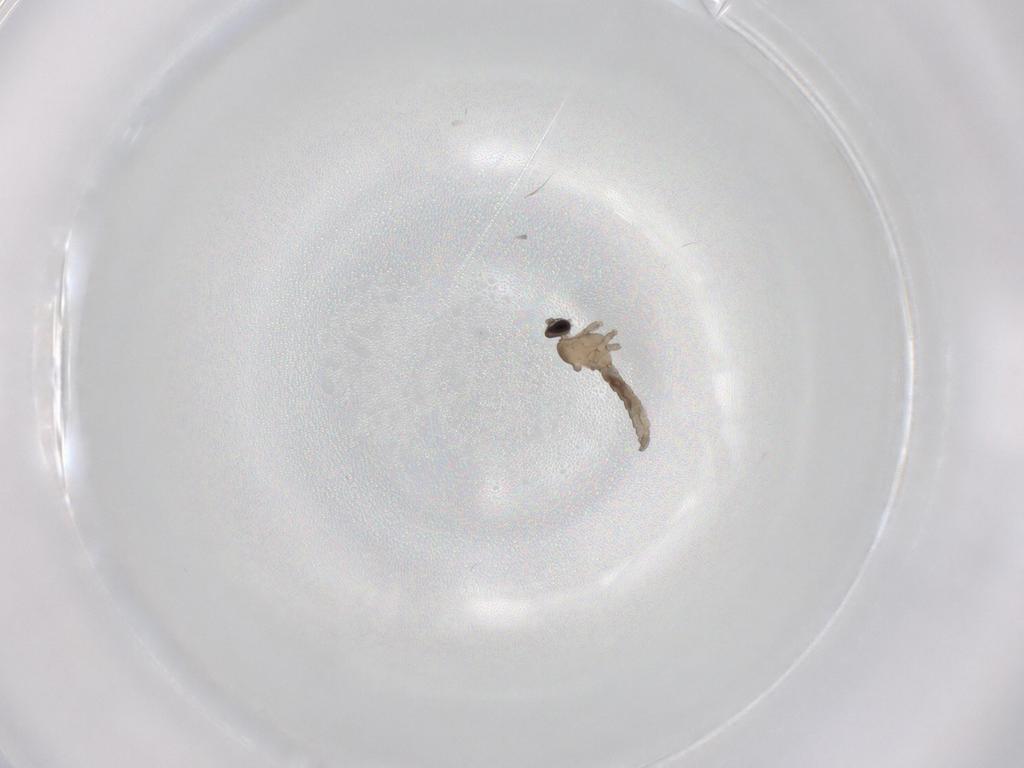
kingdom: Animalia
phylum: Arthropoda
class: Insecta
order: Diptera
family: Cecidomyiidae
